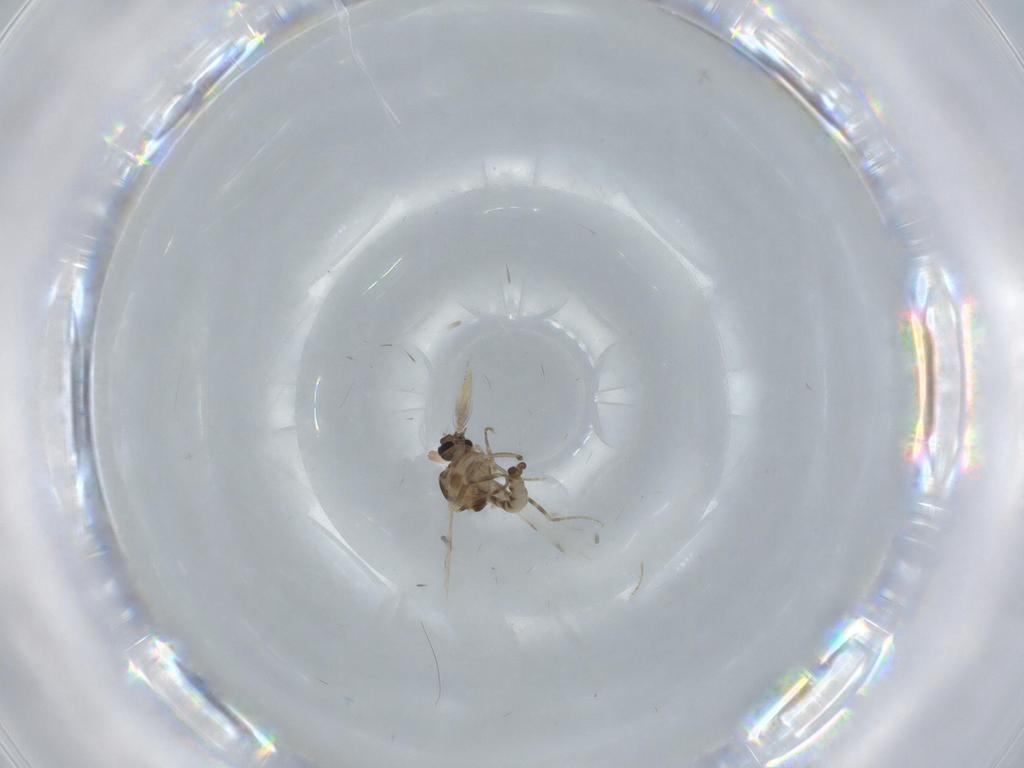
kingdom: Animalia
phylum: Arthropoda
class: Insecta
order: Diptera
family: Ceratopogonidae
